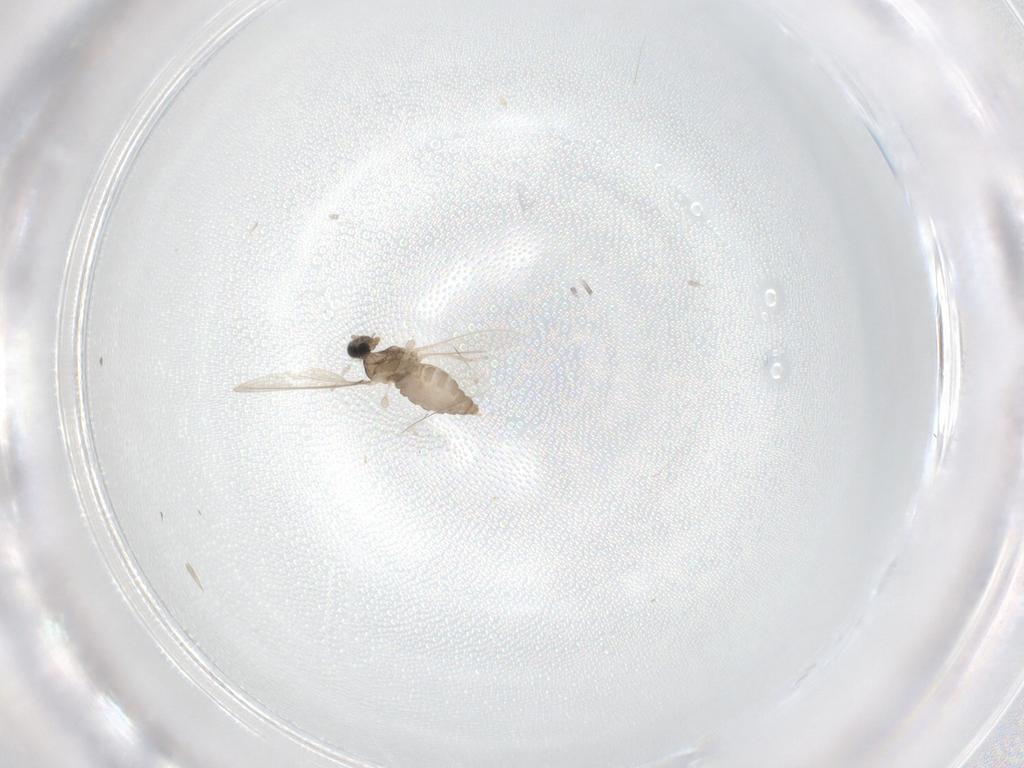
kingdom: Animalia
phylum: Arthropoda
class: Insecta
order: Diptera
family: Cecidomyiidae
